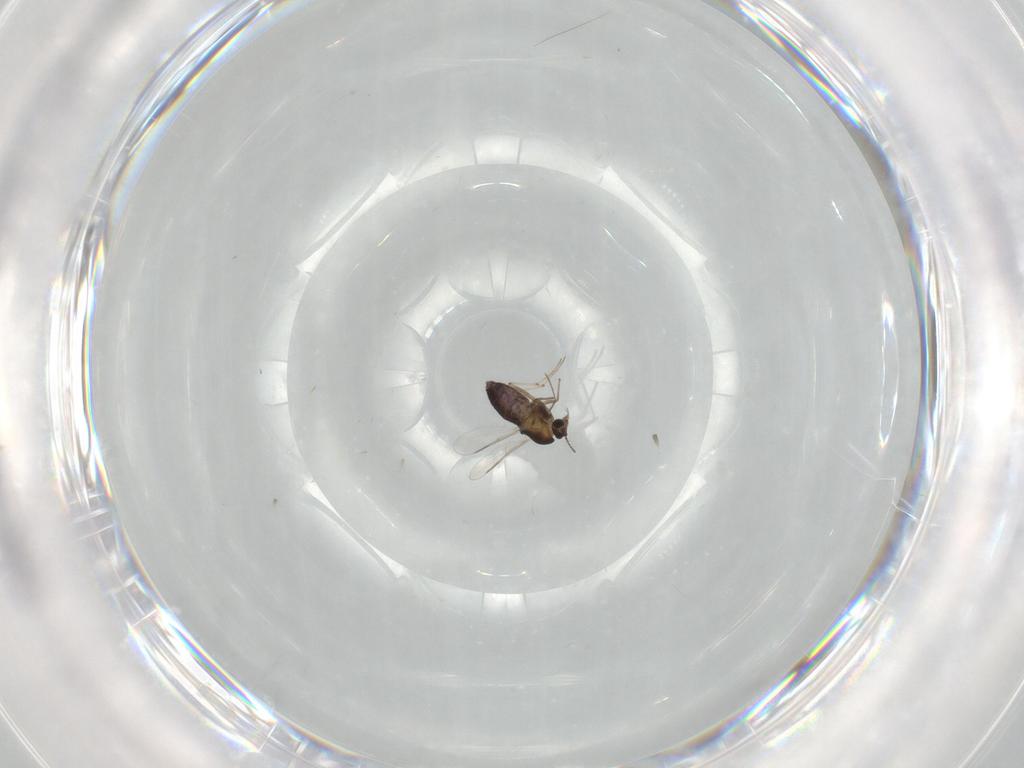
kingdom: Animalia
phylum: Arthropoda
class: Insecta
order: Diptera
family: Chironomidae
